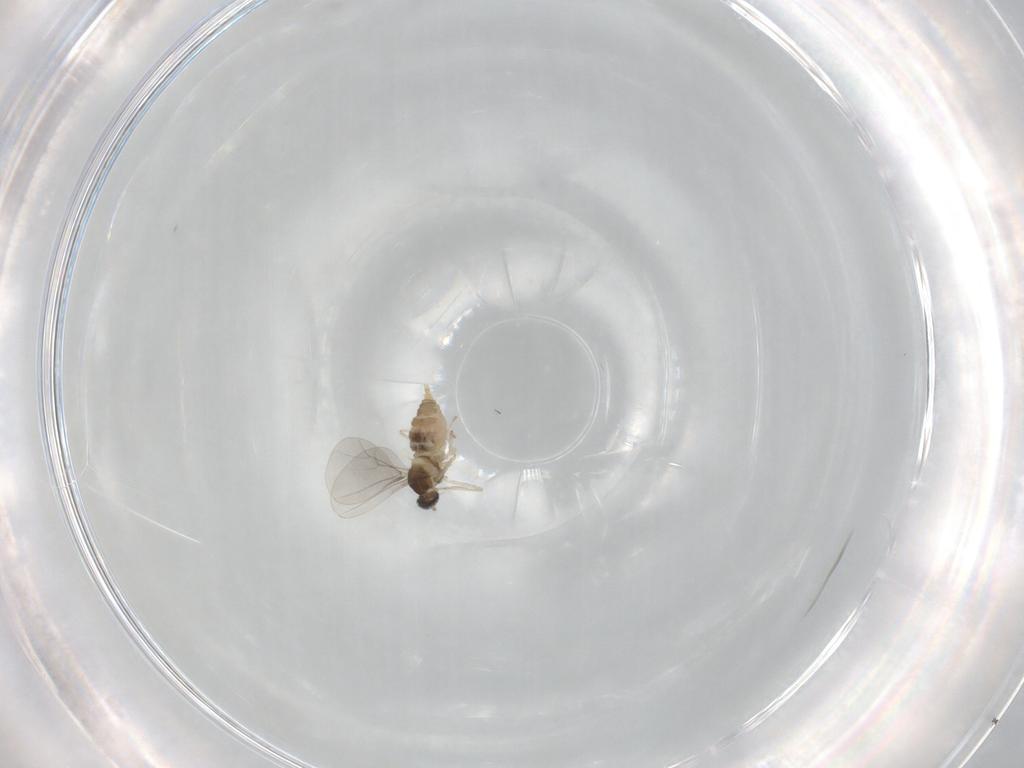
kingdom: Animalia
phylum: Arthropoda
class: Insecta
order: Diptera
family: Cecidomyiidae
